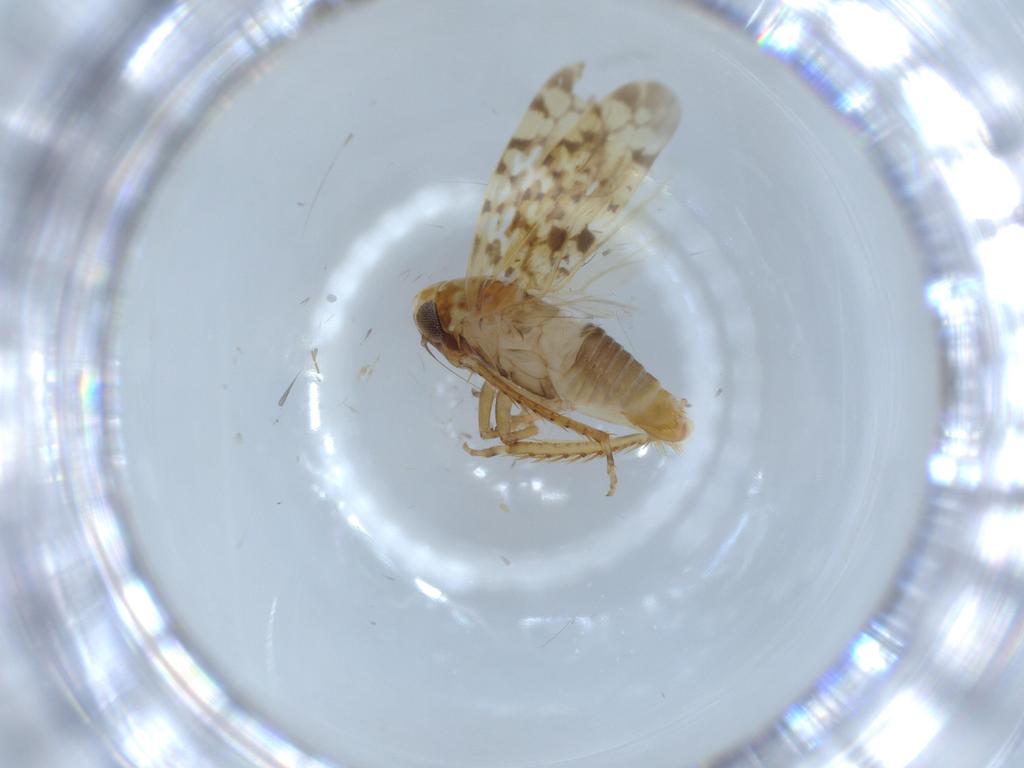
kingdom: Animalia
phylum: Arthropoda
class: Insecta
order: Hemiptera
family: Cicadellidae
